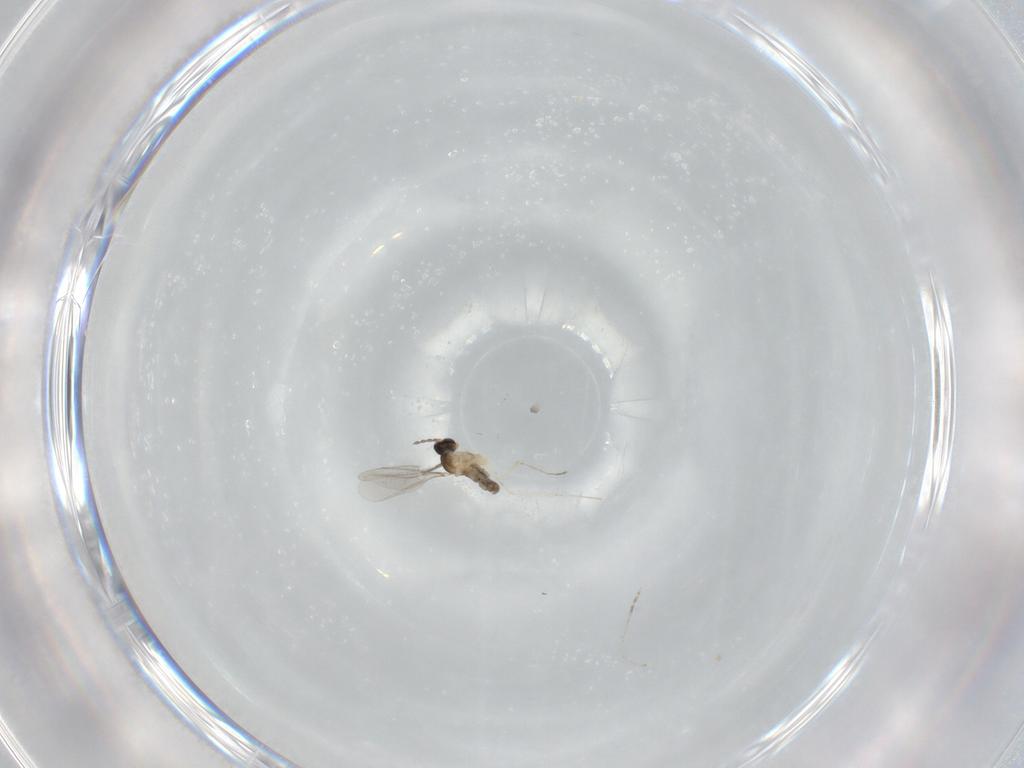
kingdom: Animalia
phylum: Arthropoda
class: Insecta
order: Diptera
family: Cecidomyiidae
